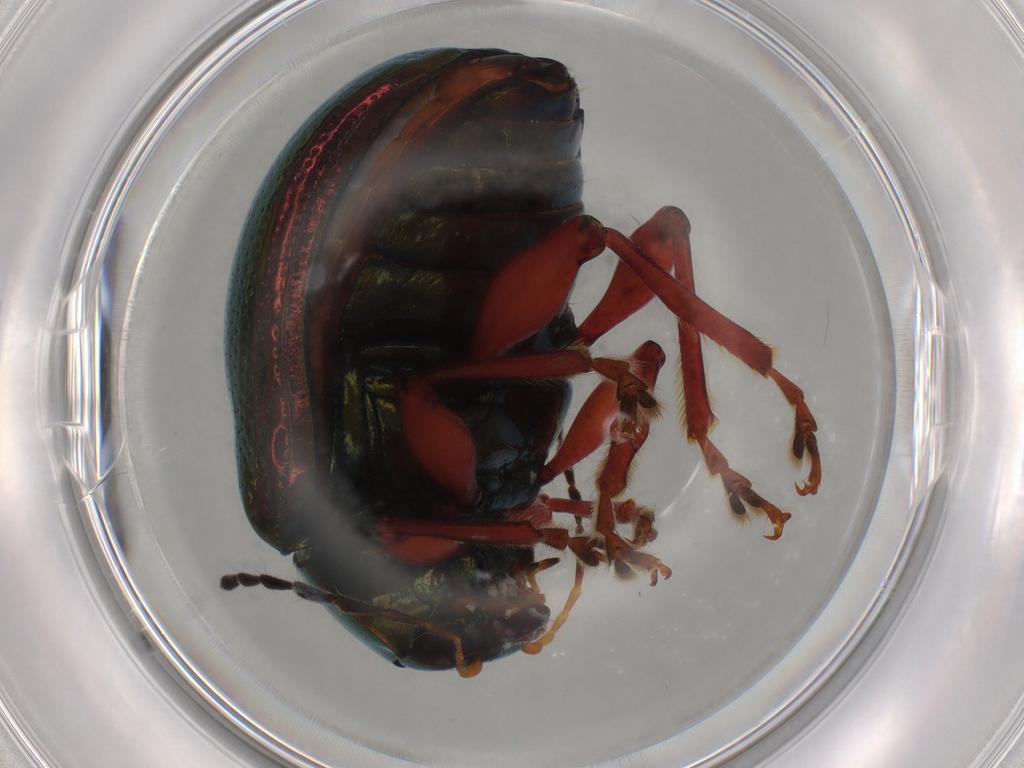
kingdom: Animalia
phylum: Arthropoda
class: Insecta
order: Coleoptera
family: Chrysomelidae
